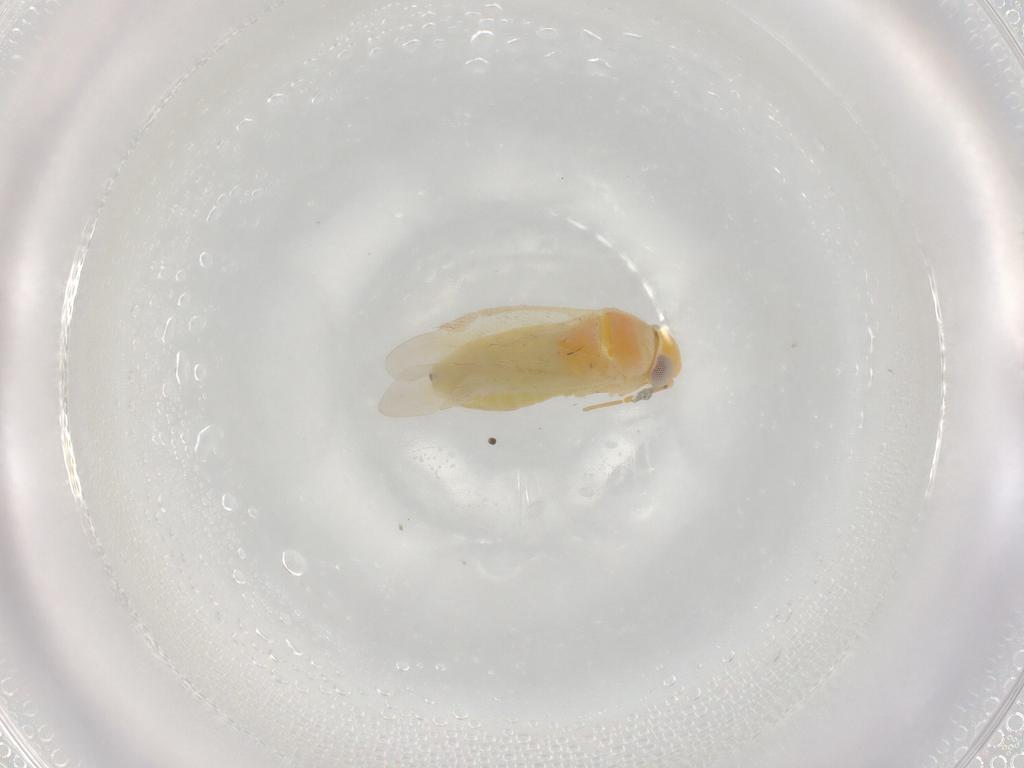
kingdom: Animalia
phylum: Arthropoda
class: Insecta
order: Hemiptera
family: Miridae
